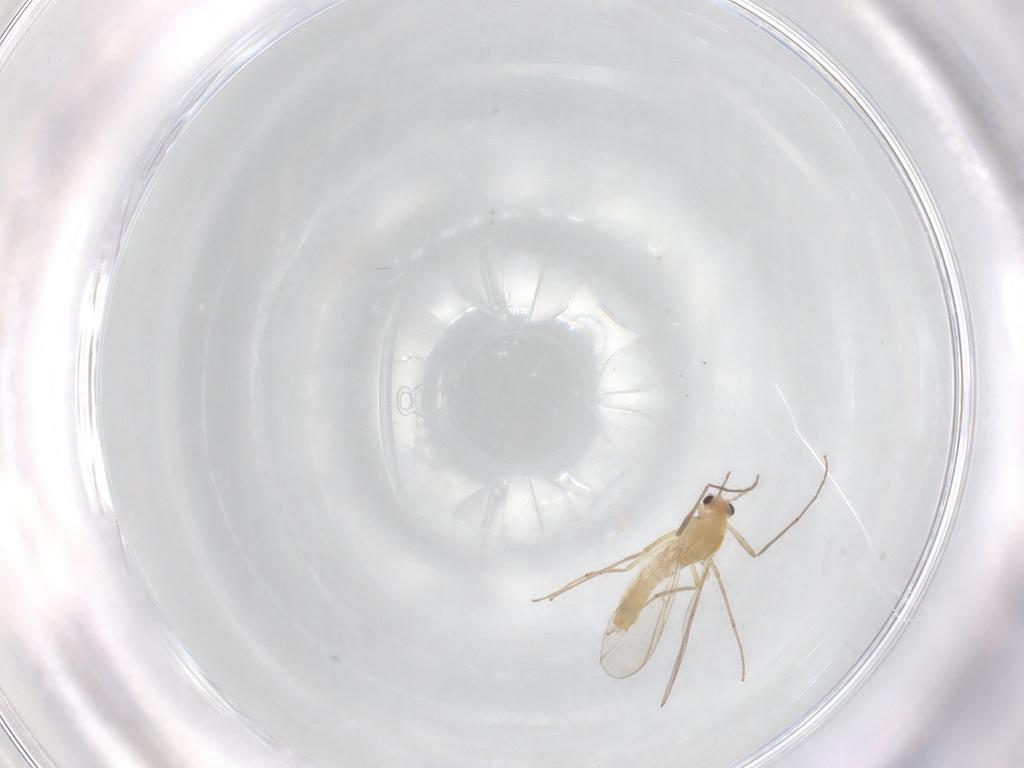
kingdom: Animalia
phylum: Arthropoda
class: Insecta
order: Diptera
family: Chironomidae
